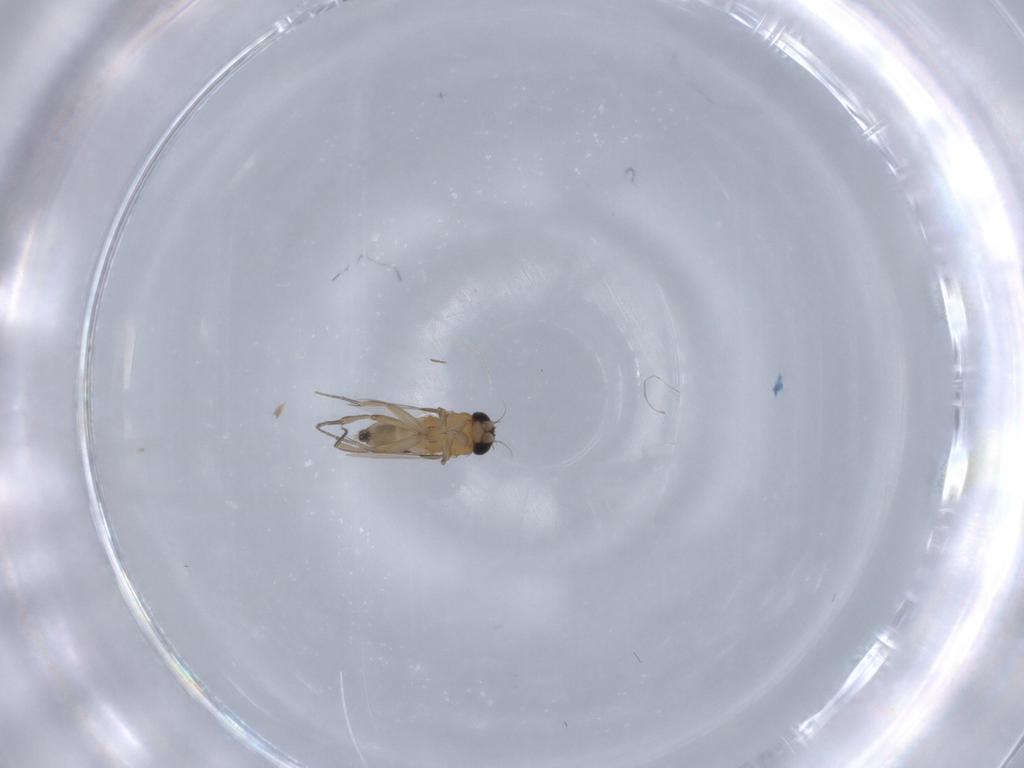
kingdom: Animalia
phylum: Arthropoda
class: Insecta
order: Diptera
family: Phoridae
